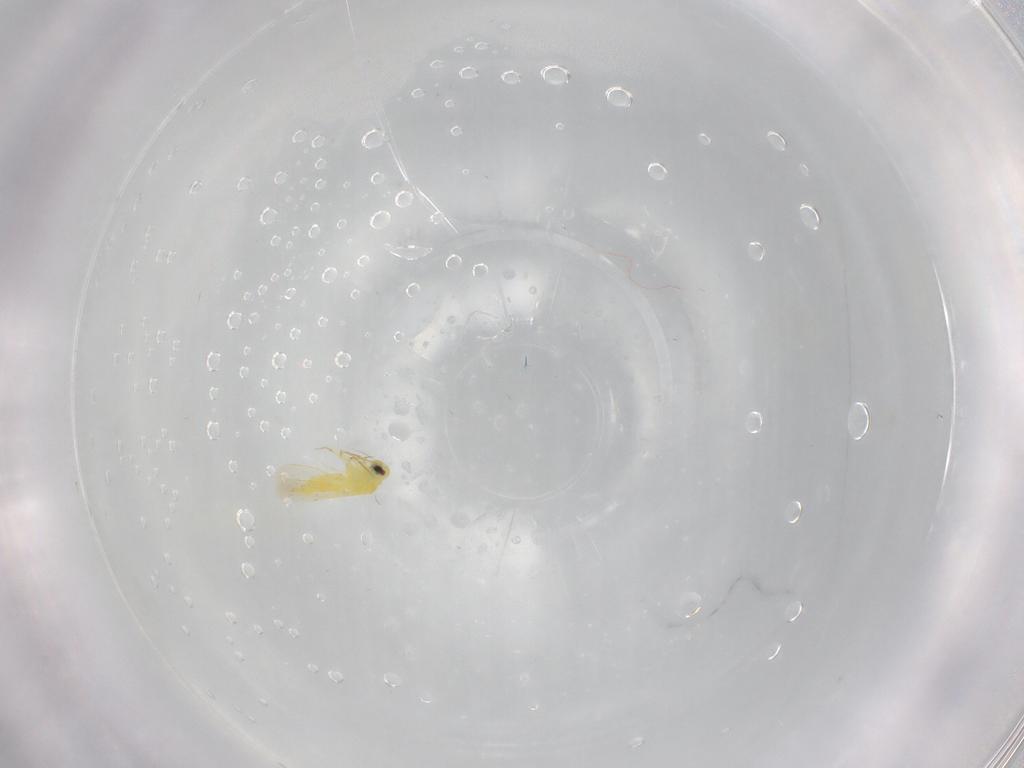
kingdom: Animalia
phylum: Arthropoda
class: Insecta
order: Hemiptera
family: Aleyrodidae
